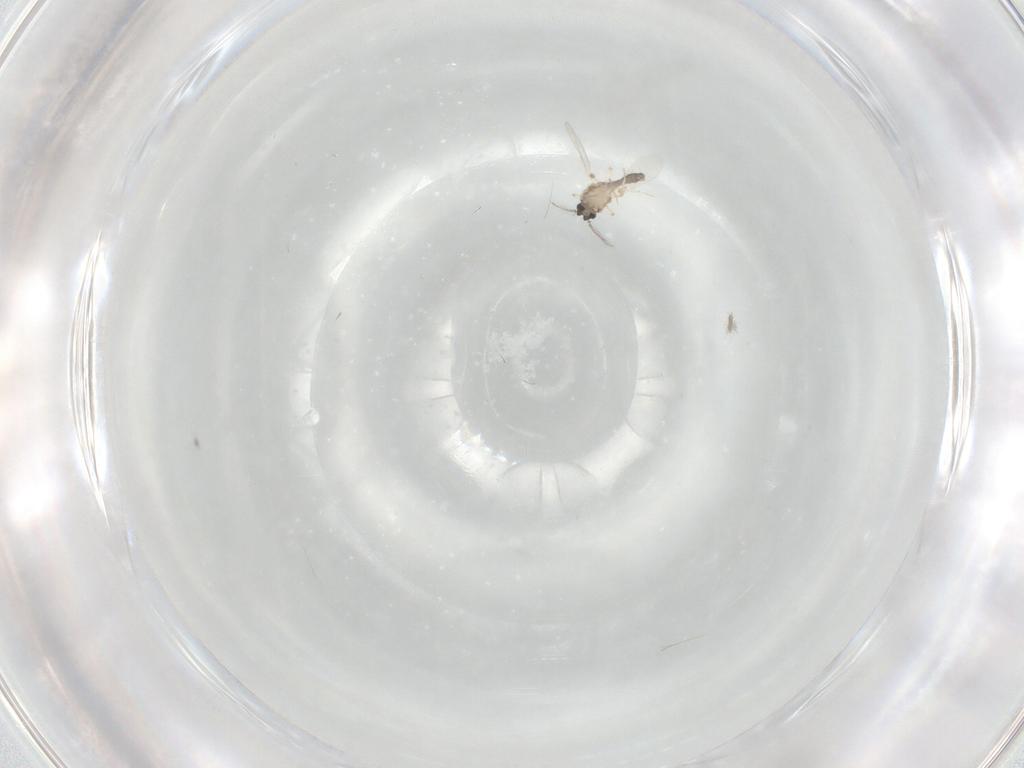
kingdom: Animalia
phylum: Arthropoda
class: Insecta
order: Diptera
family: Ceratopogonidae
